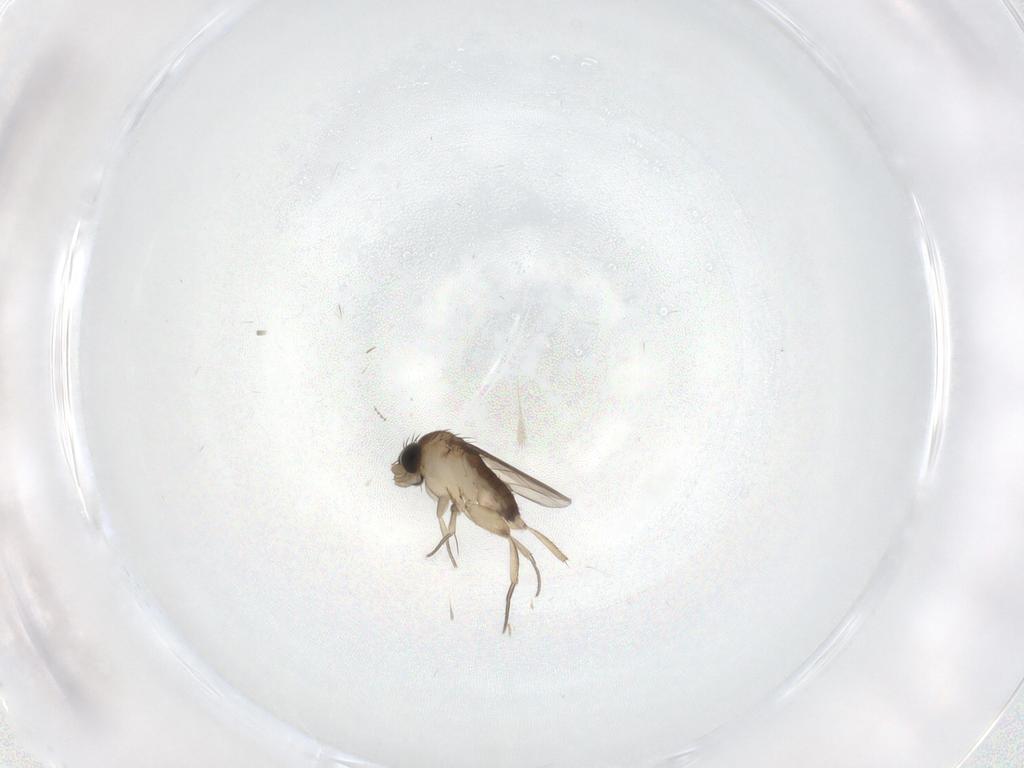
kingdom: Animalia
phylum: Arthropoda
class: Insecta
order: Diptera
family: Phoridae
